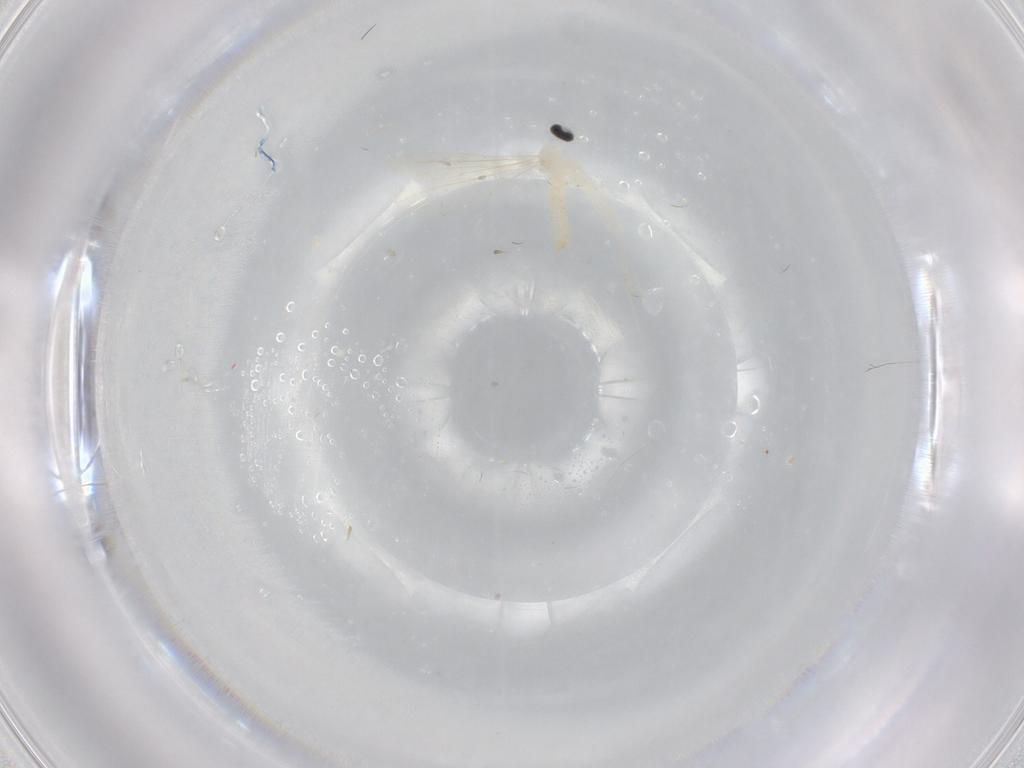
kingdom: Animalia
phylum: Arthropoda
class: Insecta
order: Diptera
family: Cecidomyiidae
